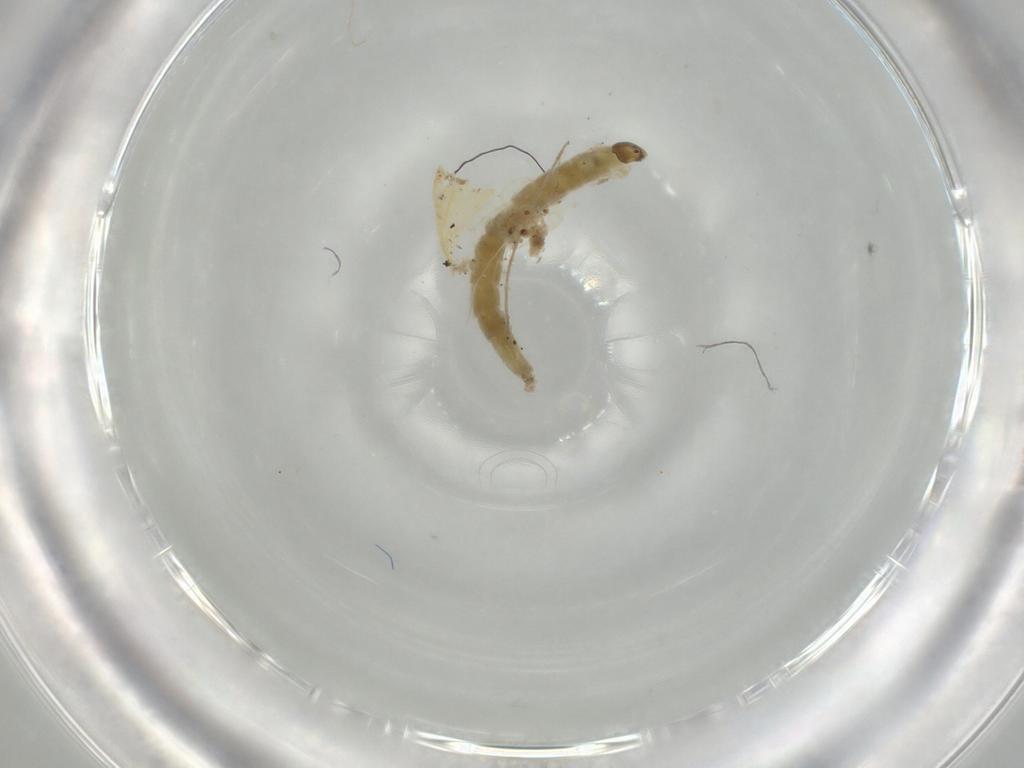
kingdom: Animalia
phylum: Arthropoda
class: Insecta
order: Diptera
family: Chironomidae
